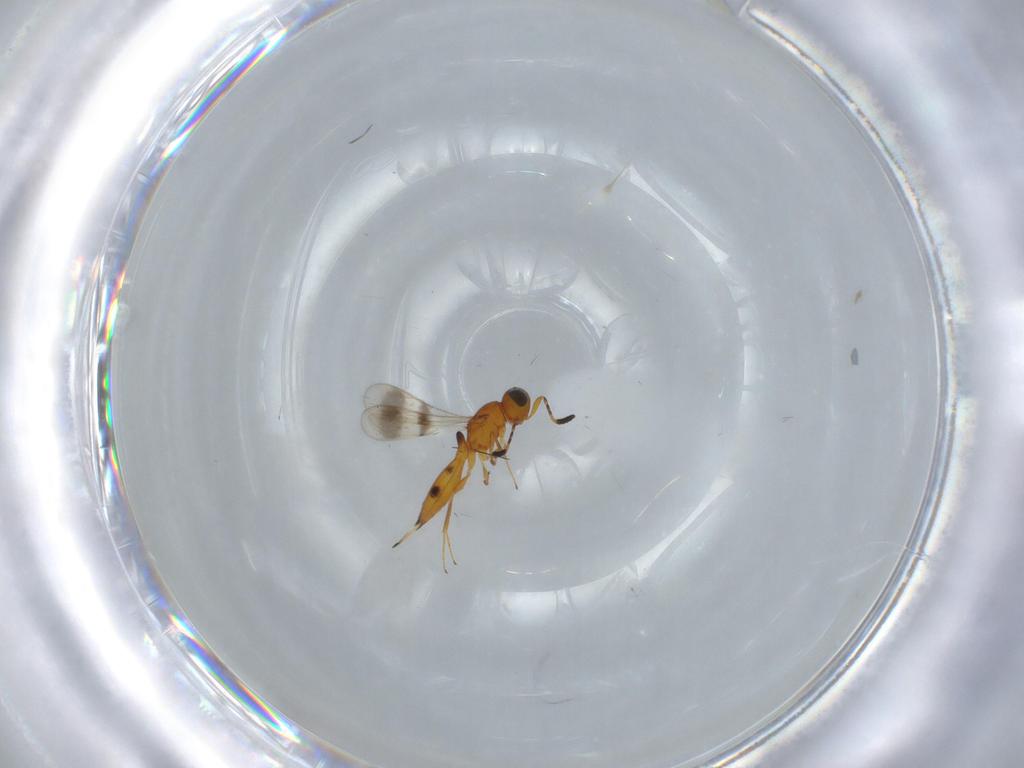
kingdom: Animalia
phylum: Arthropoda
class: Insecta
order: Hymenoptera
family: Scelionidae
